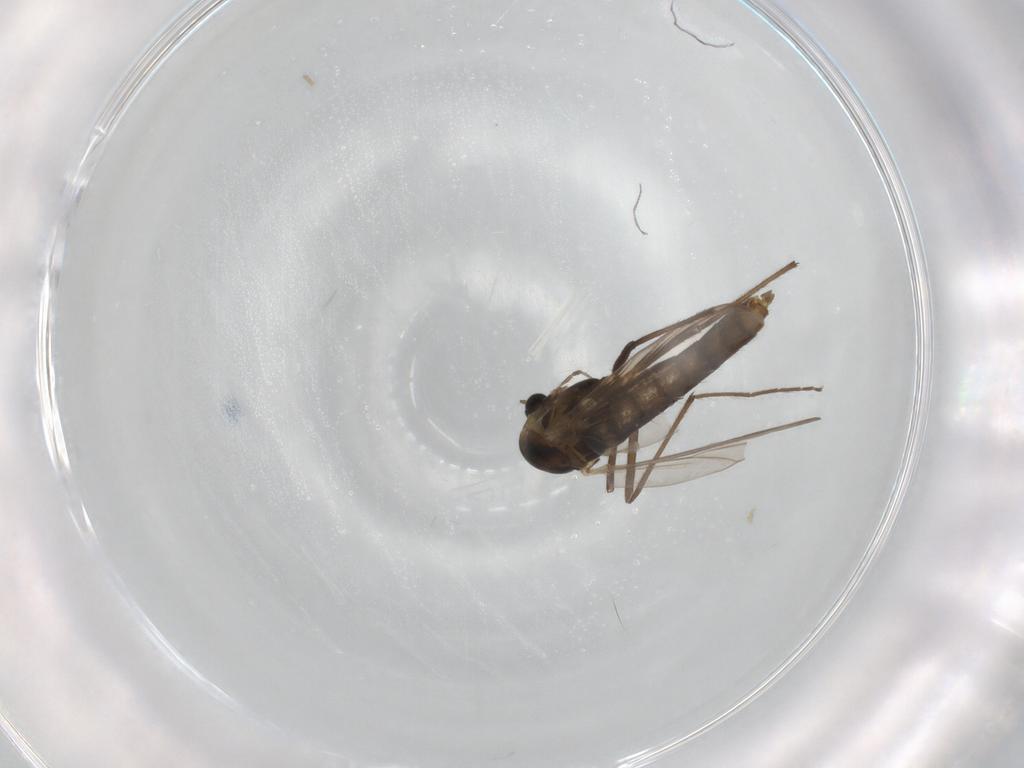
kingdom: Animalia
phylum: Arthropoda
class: Insecta
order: Diptera
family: Chironomidae
